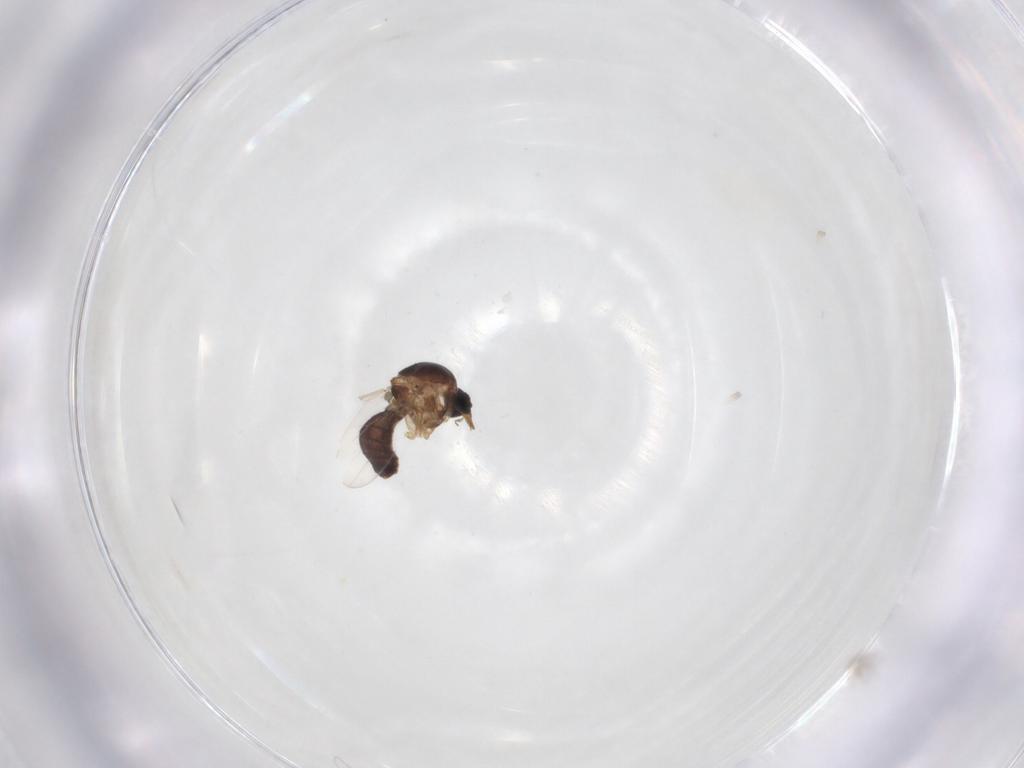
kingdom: Animalia
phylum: Arthropoda
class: Insecta
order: Diptera
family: Ceratopogonidae
